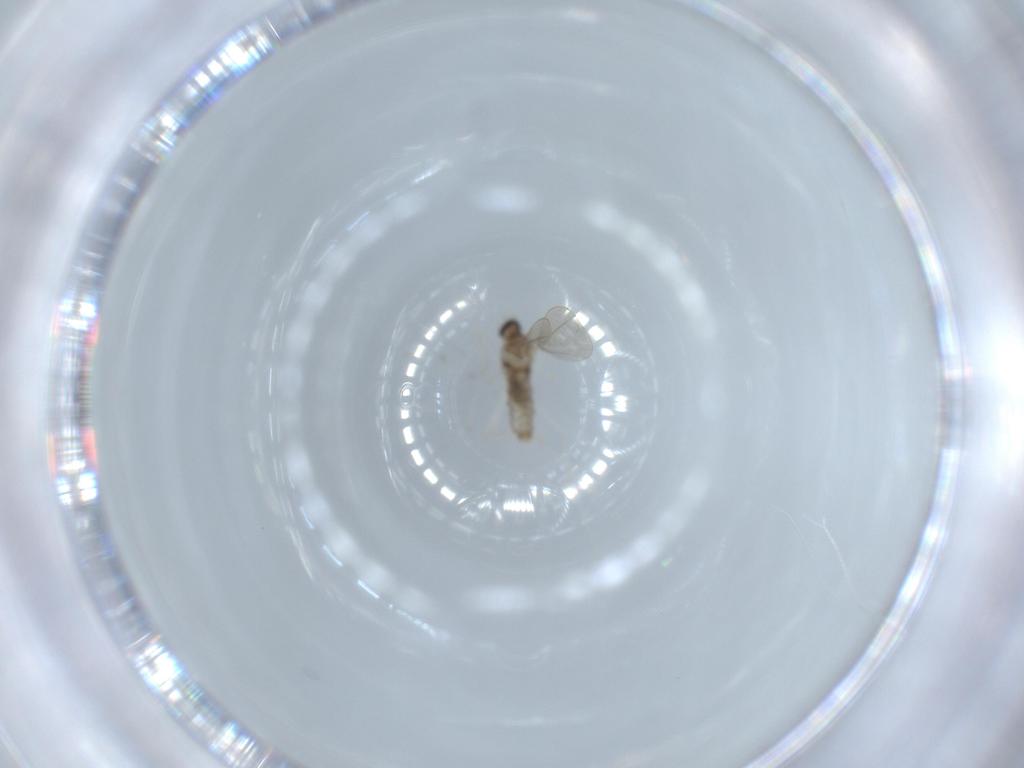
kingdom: Animalia
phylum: Arthropoda
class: Insecta
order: Diptera
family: Cecidomyiidae
